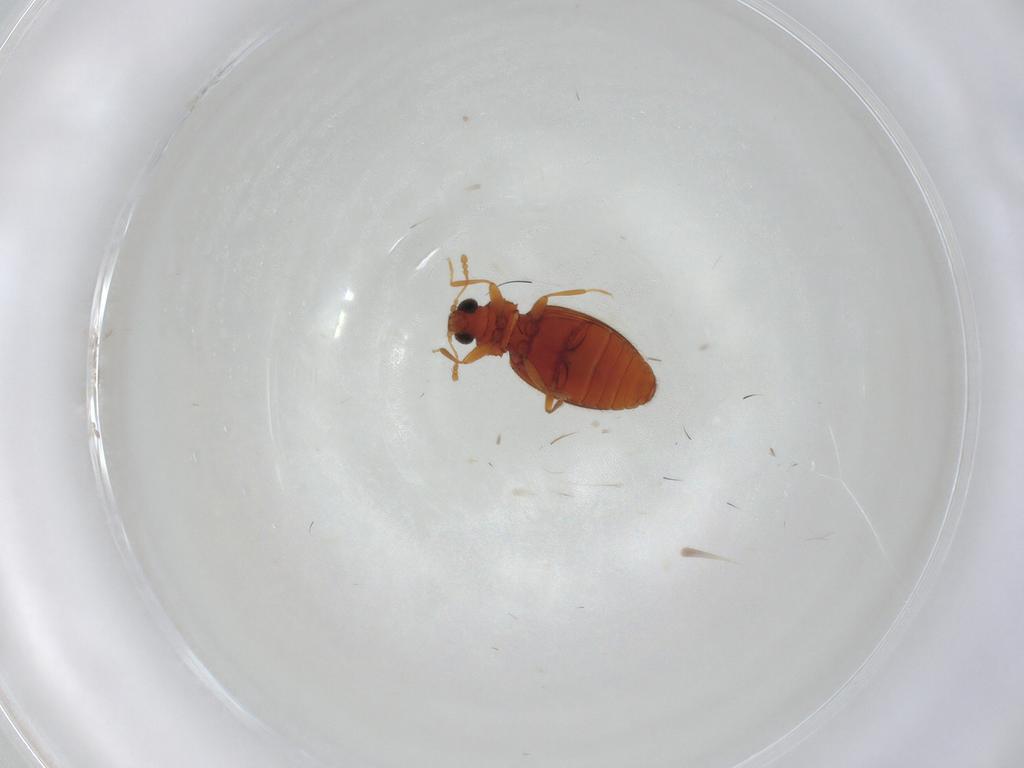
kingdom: Animalia
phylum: Arthropoda
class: Insecta
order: Coleoptera
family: Latridiidae
